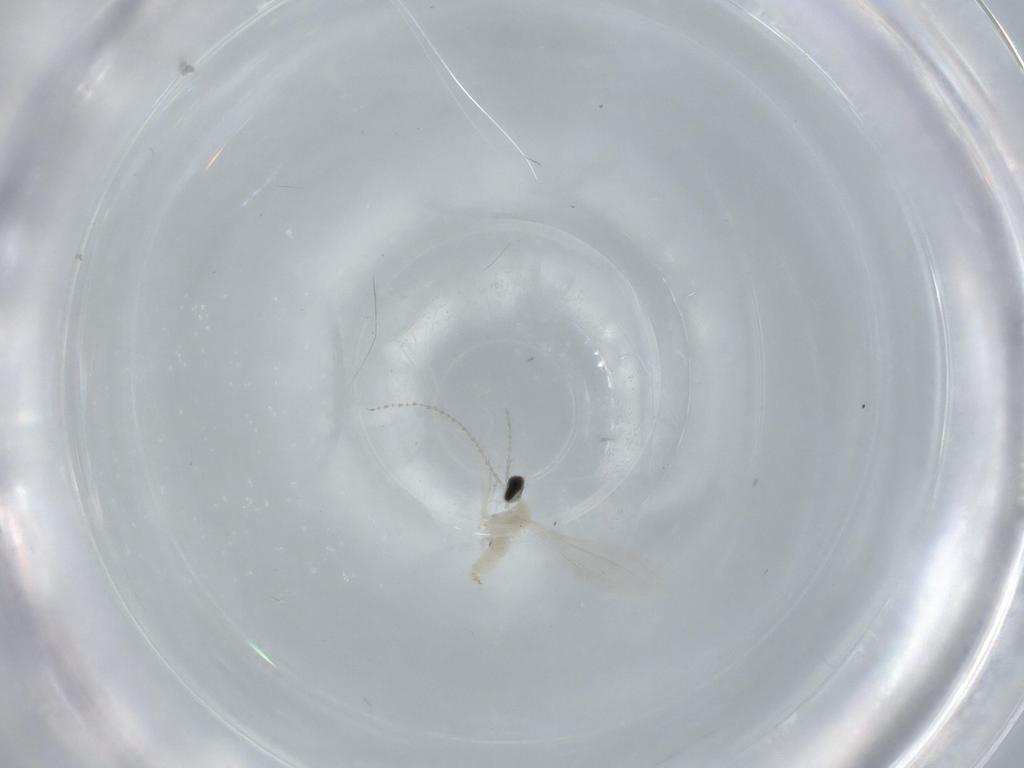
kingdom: Animalia
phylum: Arthropoda
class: Insecta
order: Diptera
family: Cecidomyiidae
